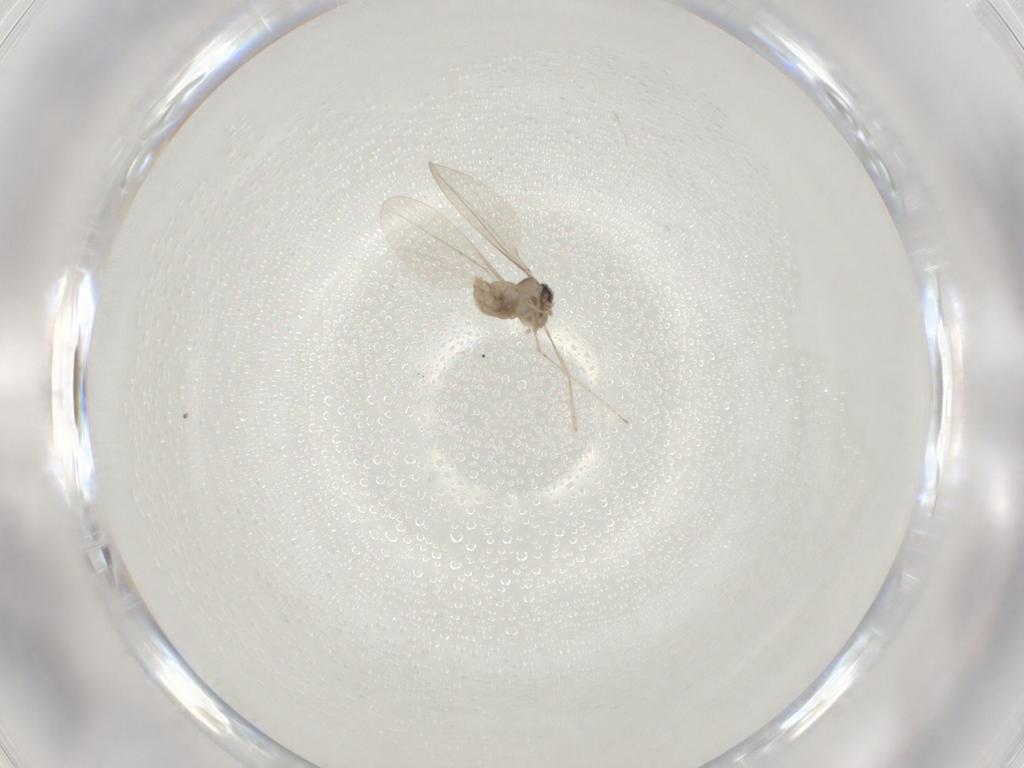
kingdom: Animalia
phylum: Arthropoda
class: Insecta
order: Diptera
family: Cecidomyiidae
